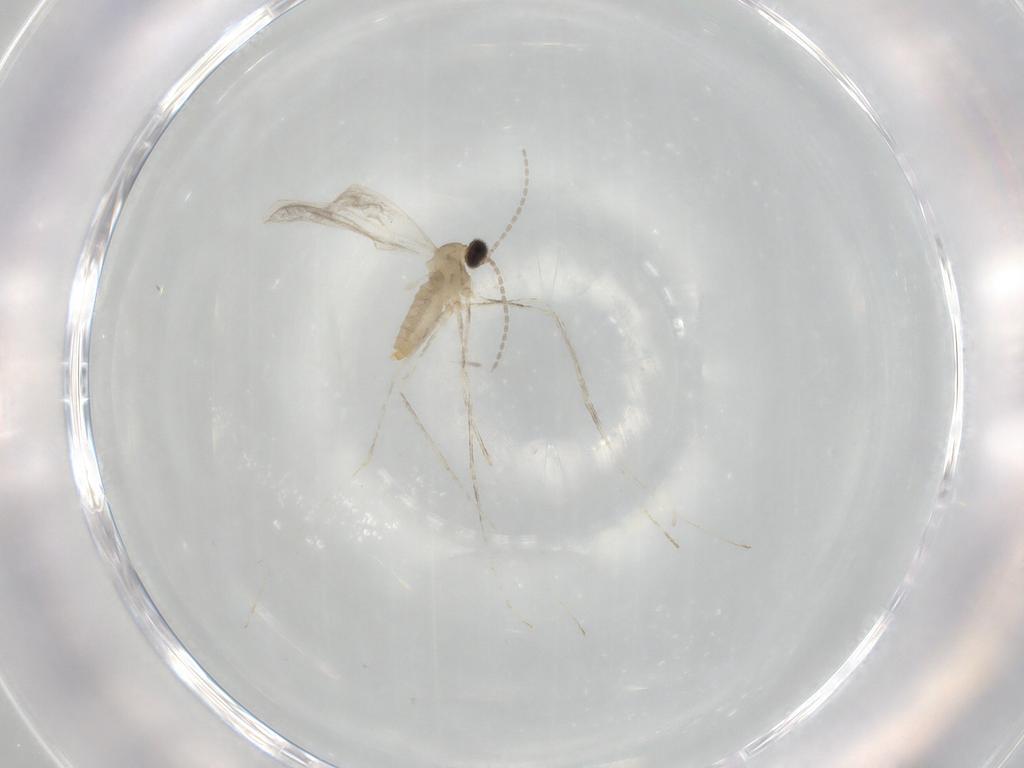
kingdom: Animalia
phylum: Arthropoda
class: Insecta
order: Diptera
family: Cecidomyiidae
